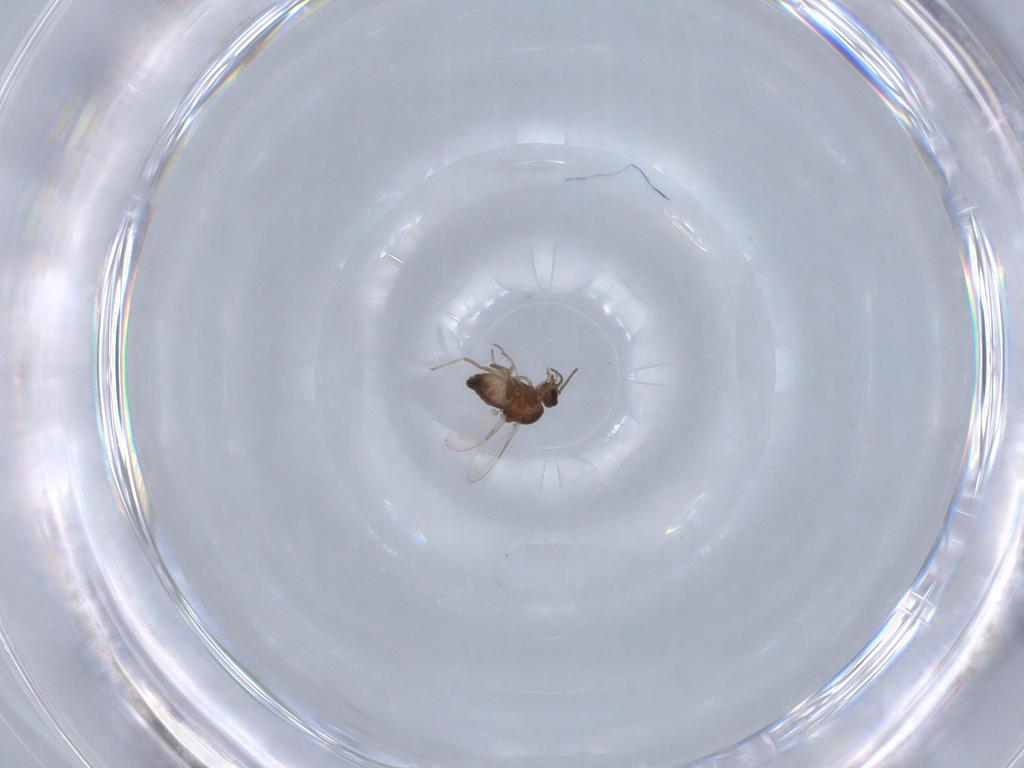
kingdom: Animalia
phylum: Arthropoda
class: Insecta
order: Diptera
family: Ceratopogonidae
